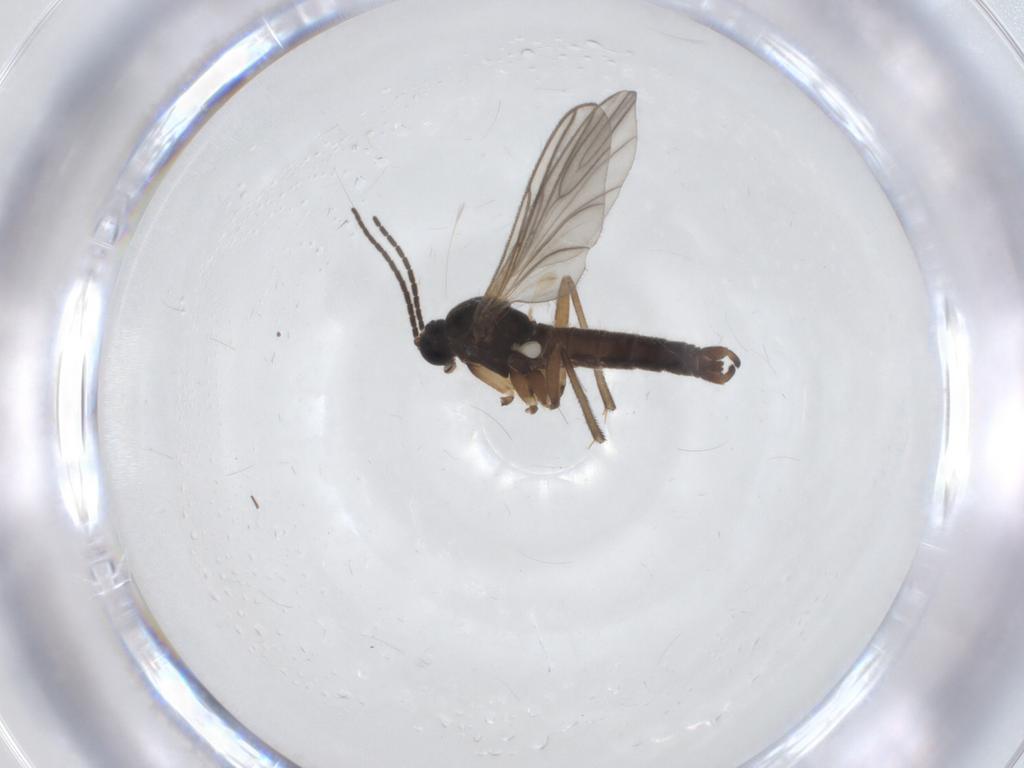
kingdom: Animalia
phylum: Arthropoda
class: Insecta
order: Diptera
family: Sciaridae
